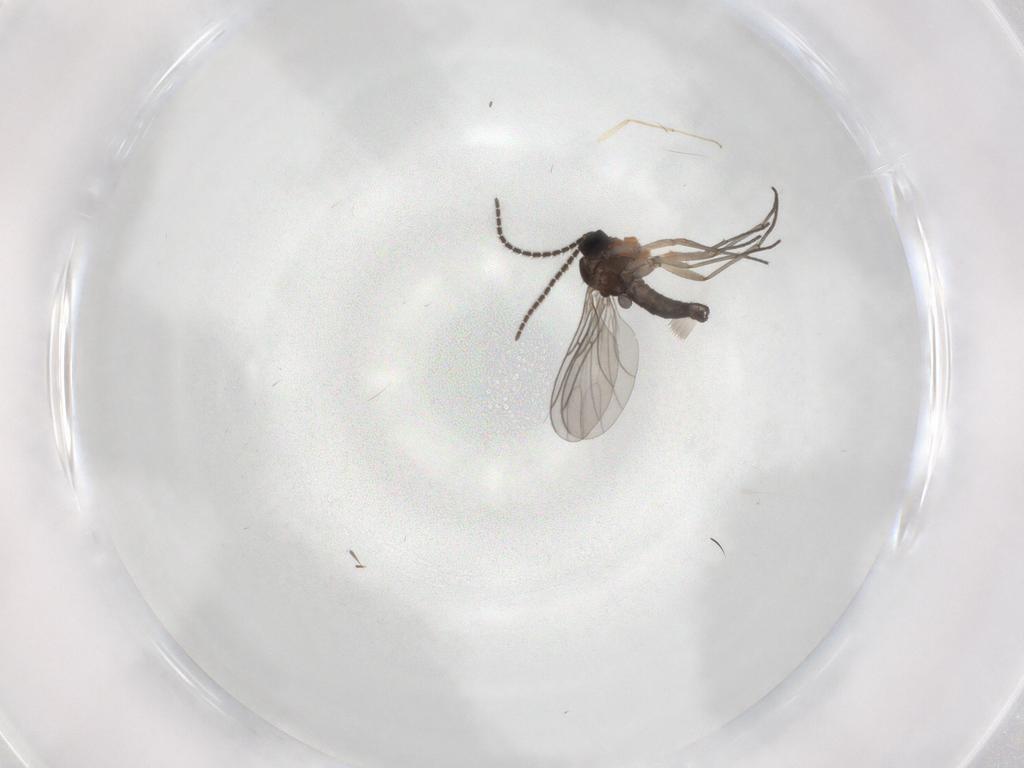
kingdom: Animalia
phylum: Arthropoda
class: Insecta
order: Diptera
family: Sciaridae
